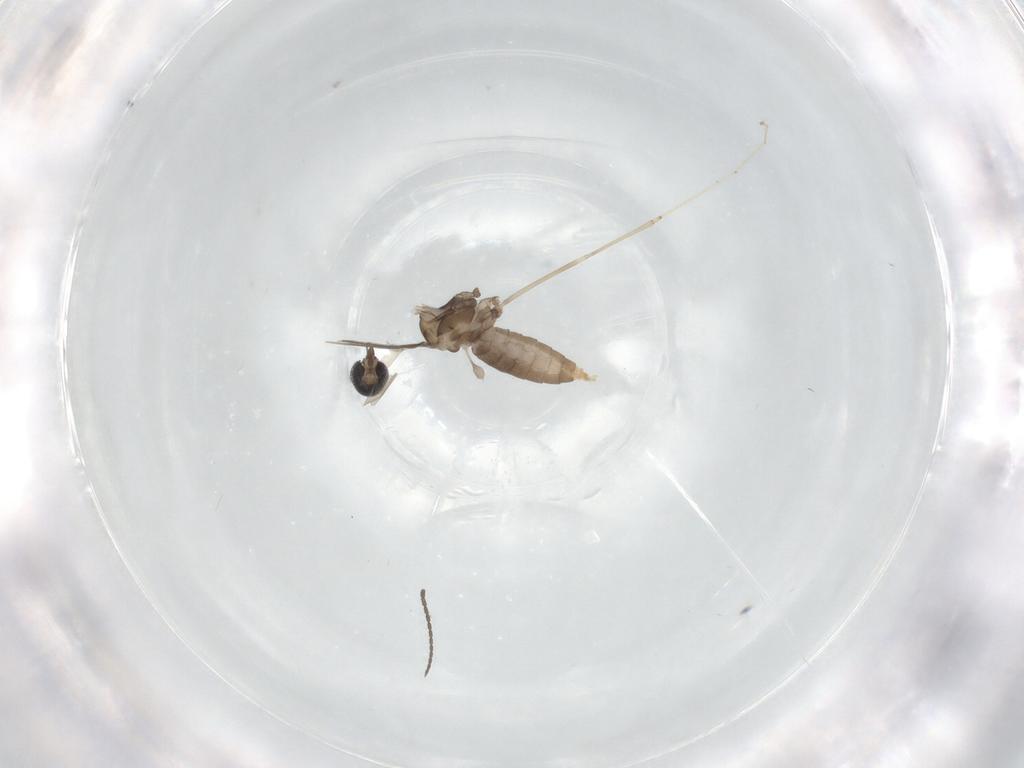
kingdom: Animalia
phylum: Arthropoda
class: Insecta
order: Diptera
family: Cecidomyiidae
